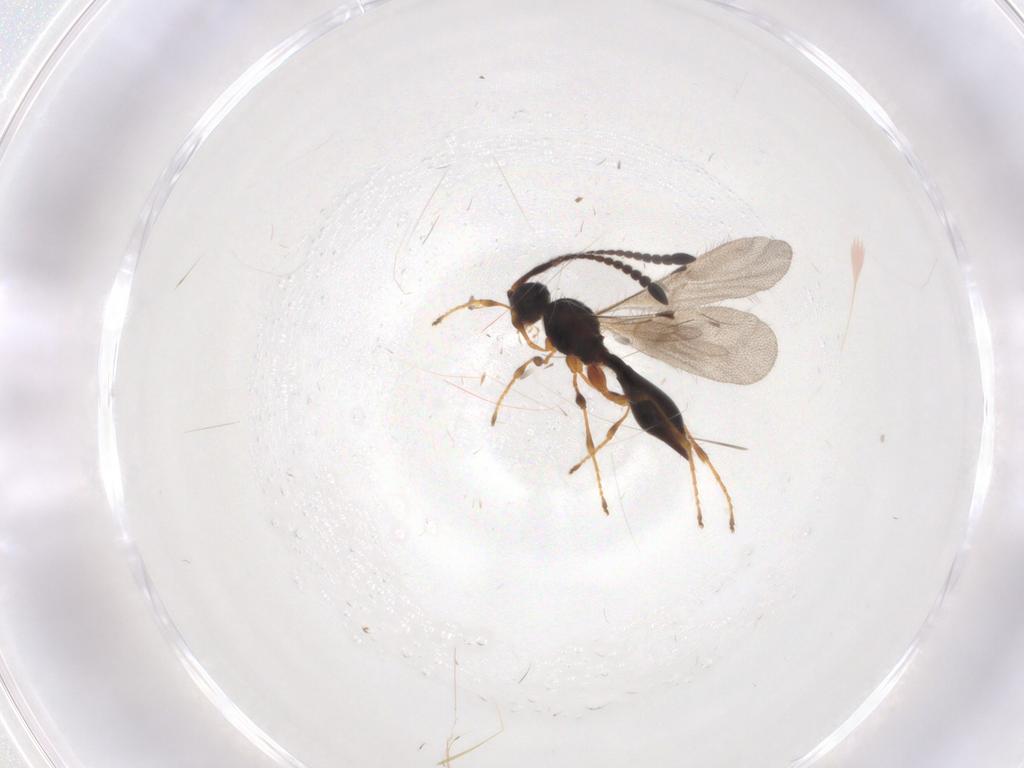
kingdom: Animalia
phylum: Arthropoda
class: Insecta
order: Hymenoptera
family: Diapriidae
